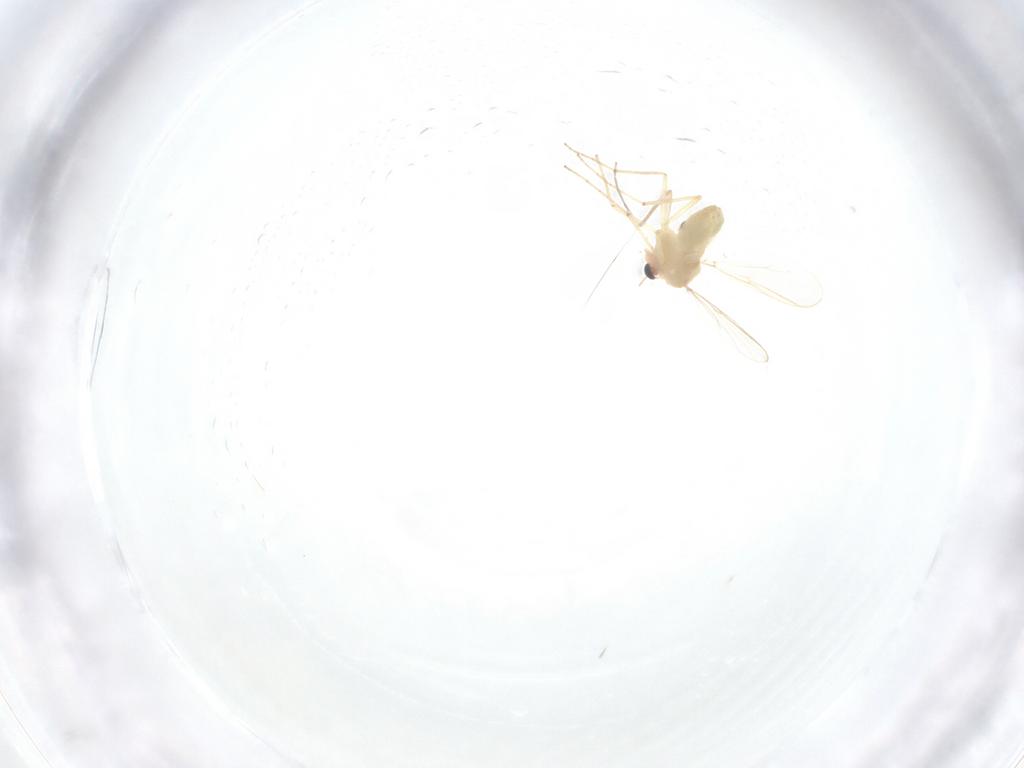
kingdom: Animalia
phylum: Arthropoda
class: Insecta
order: Diptera
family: Chironomidae
